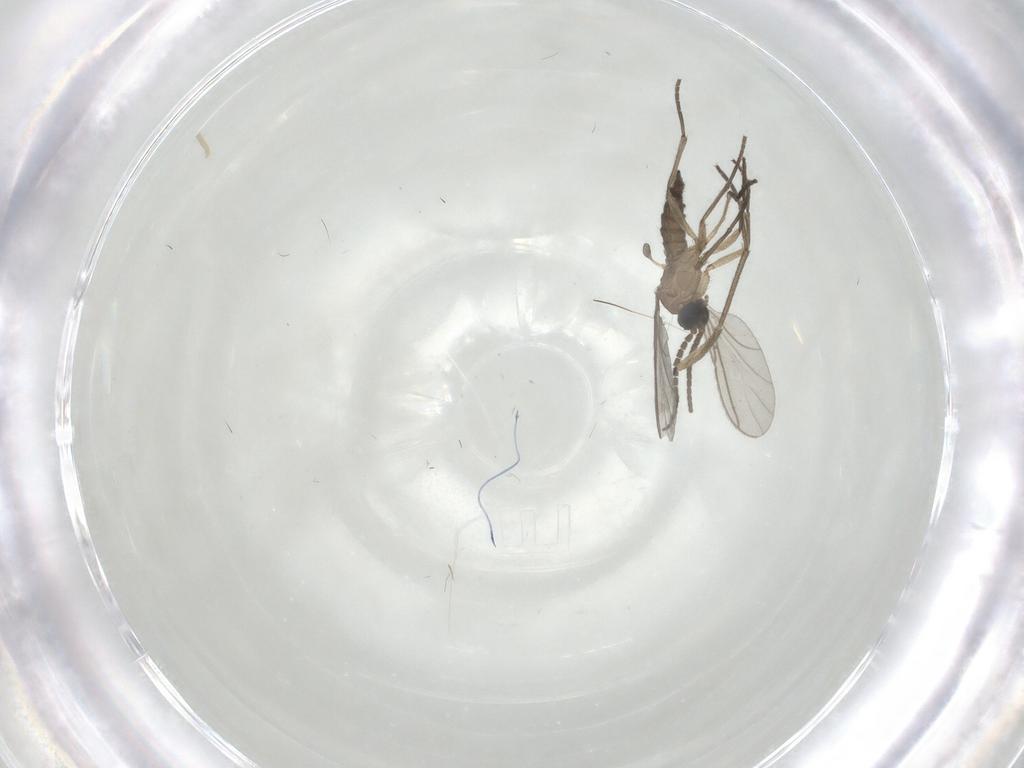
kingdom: Animalia
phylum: Arthropoda
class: Insecta
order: Diptera
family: Sciaridae
